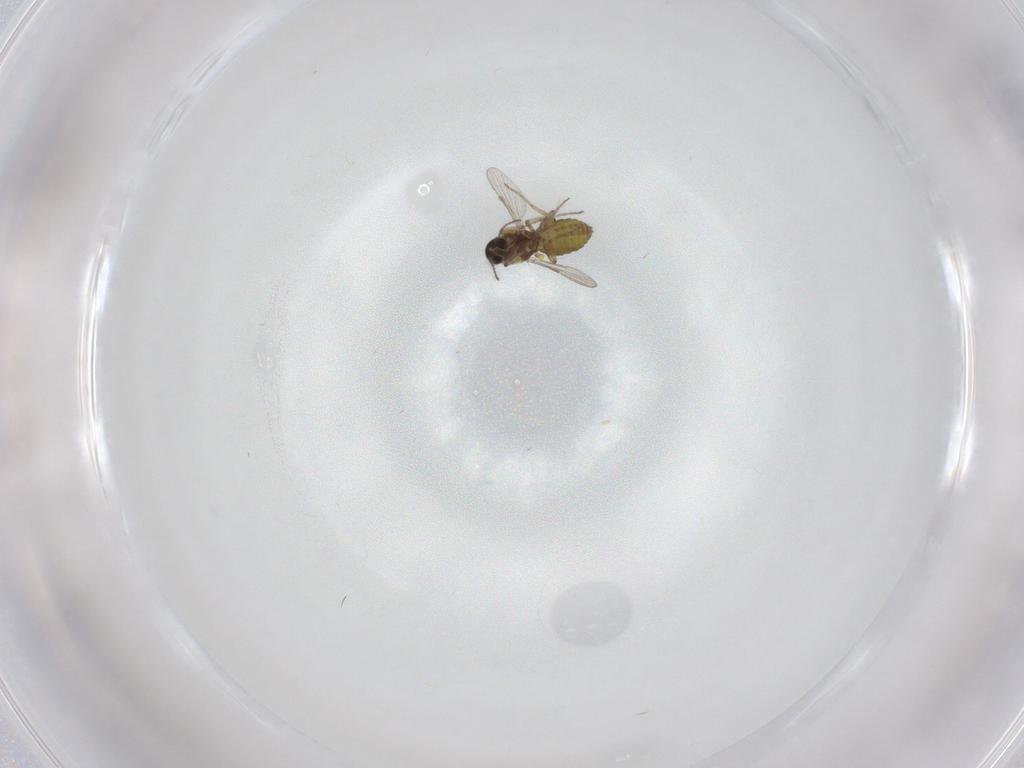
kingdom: Animalia
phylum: Arthropoda
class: Insecta
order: Diptera
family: Ceratopogonidae
